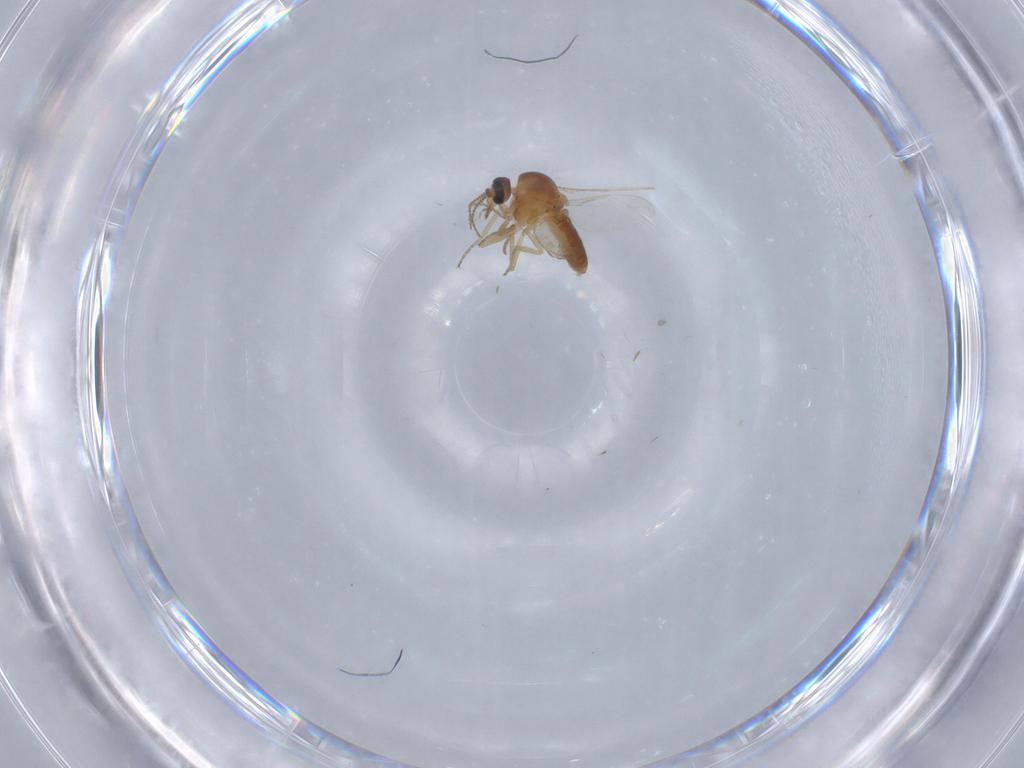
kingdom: Animalia
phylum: Arthropoda
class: Insecta
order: Diptera
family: Ceratopogonidae
